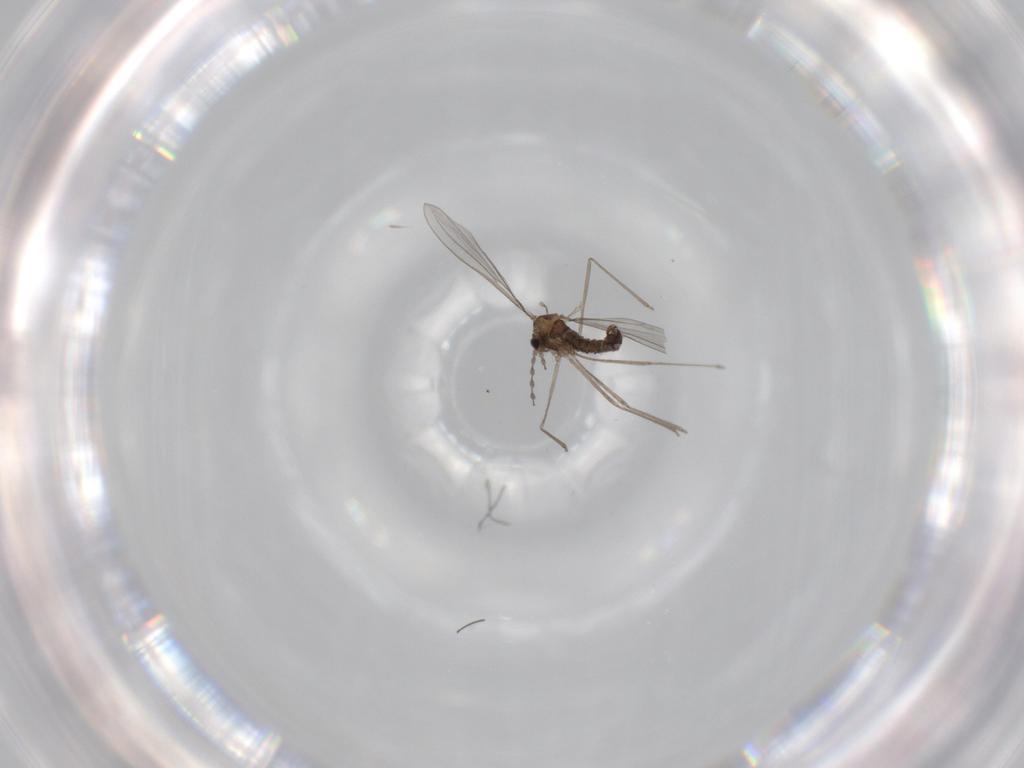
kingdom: Animalia
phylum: Arthropoda
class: Insecta
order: Diptera
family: Cecidomyiidae
